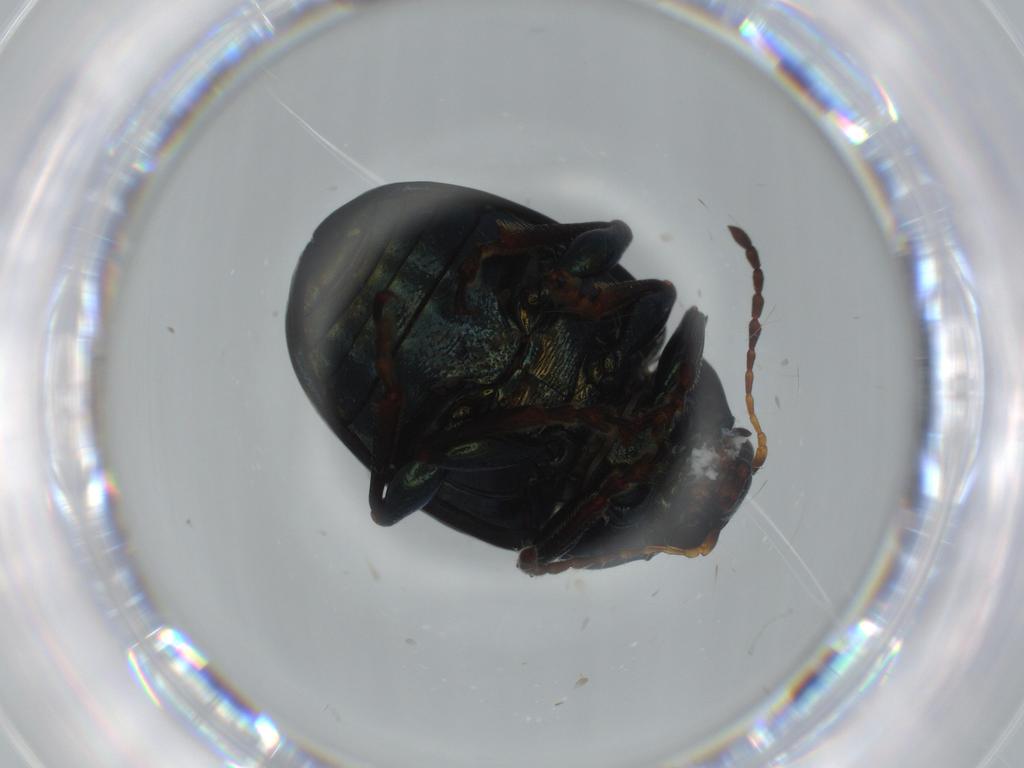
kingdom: Animalia
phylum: Arthropoda
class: Insecta
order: Coleoptera
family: Chrysomelidae
